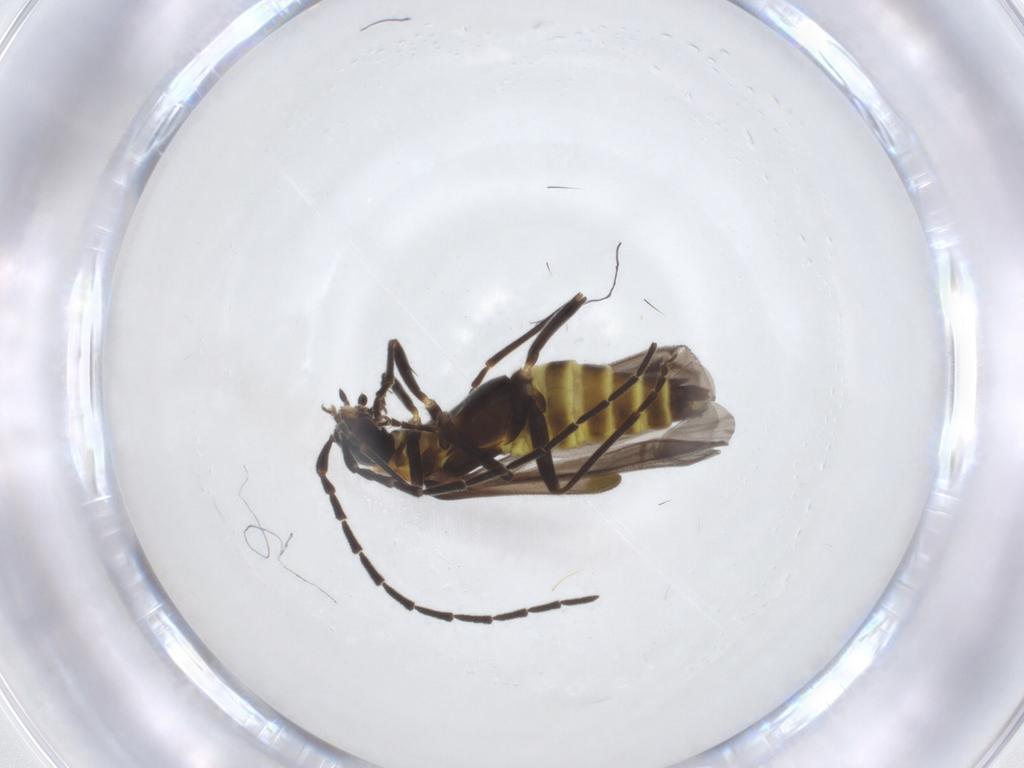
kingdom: Animalia
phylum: Arthropoda
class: Insecta
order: Coleoptera
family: Cantharidae
